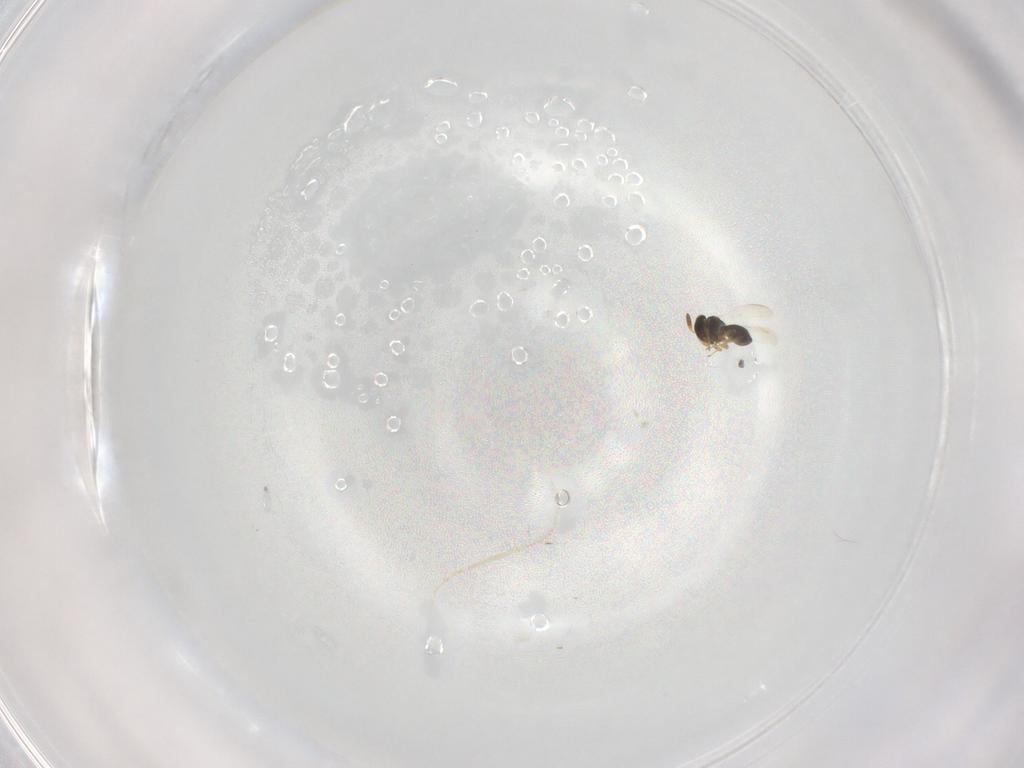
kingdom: Animalia
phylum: Arthropoda
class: Insecta
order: Hymenoptera
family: Platygastridae
